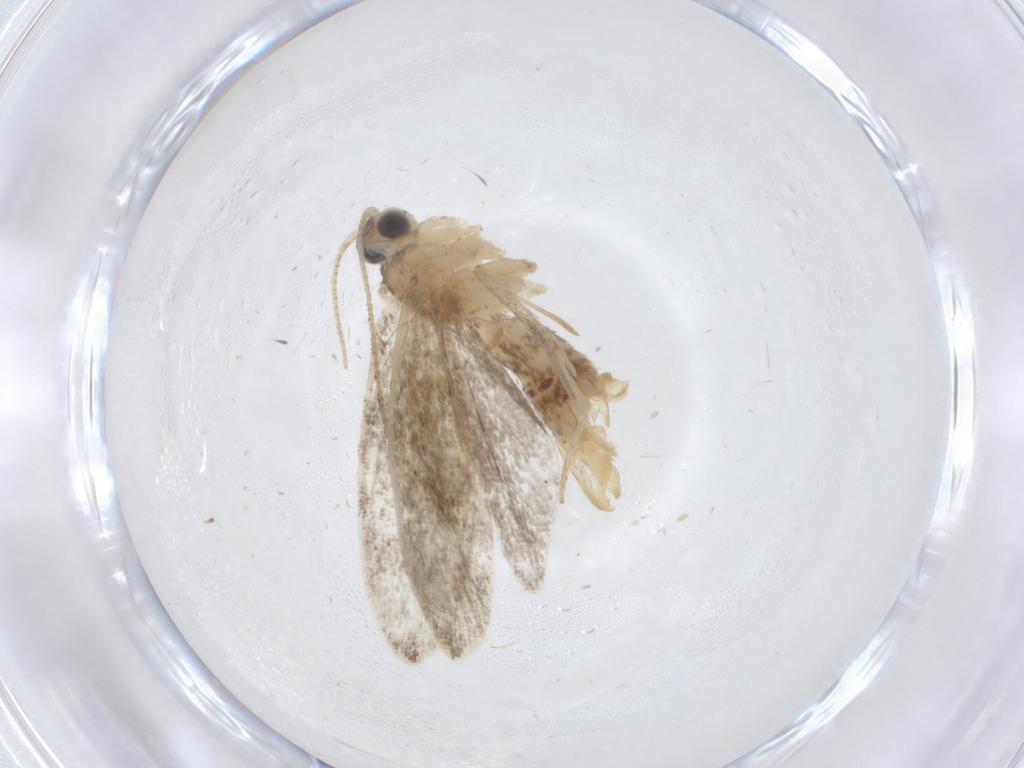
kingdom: Animalia
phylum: Arthropoda
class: Insecta
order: Lepidoptera
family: Tineidae
